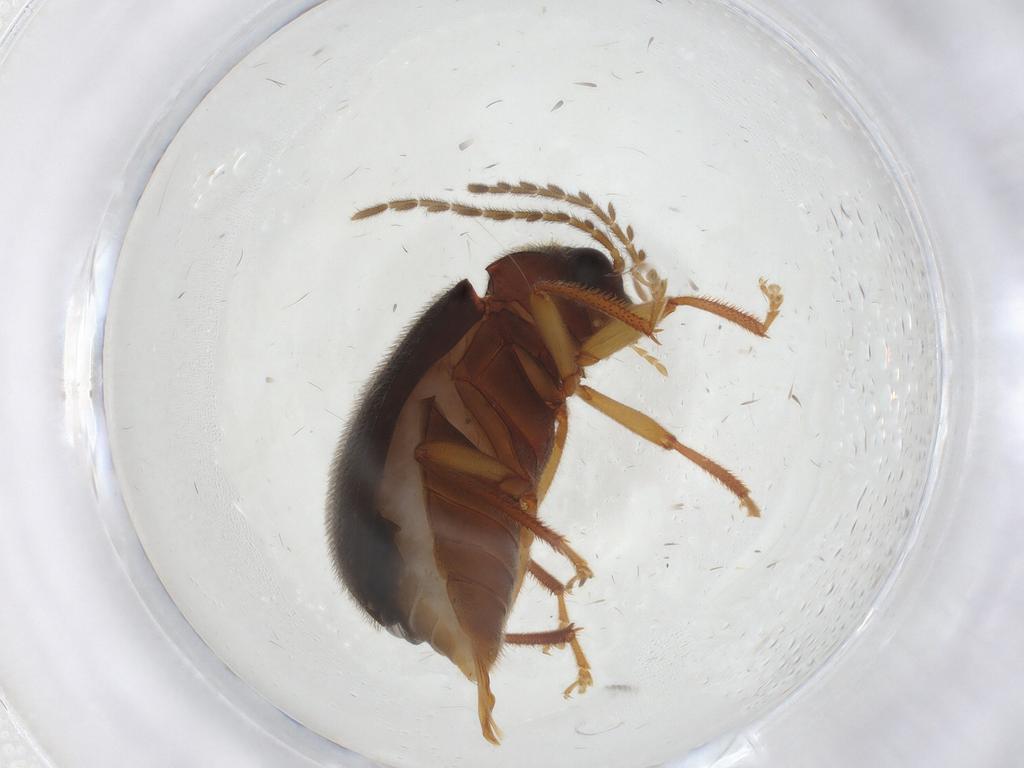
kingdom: Animalia
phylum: Arthropoda
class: Insecta
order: Coleoptera
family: Ptilodactylidae
